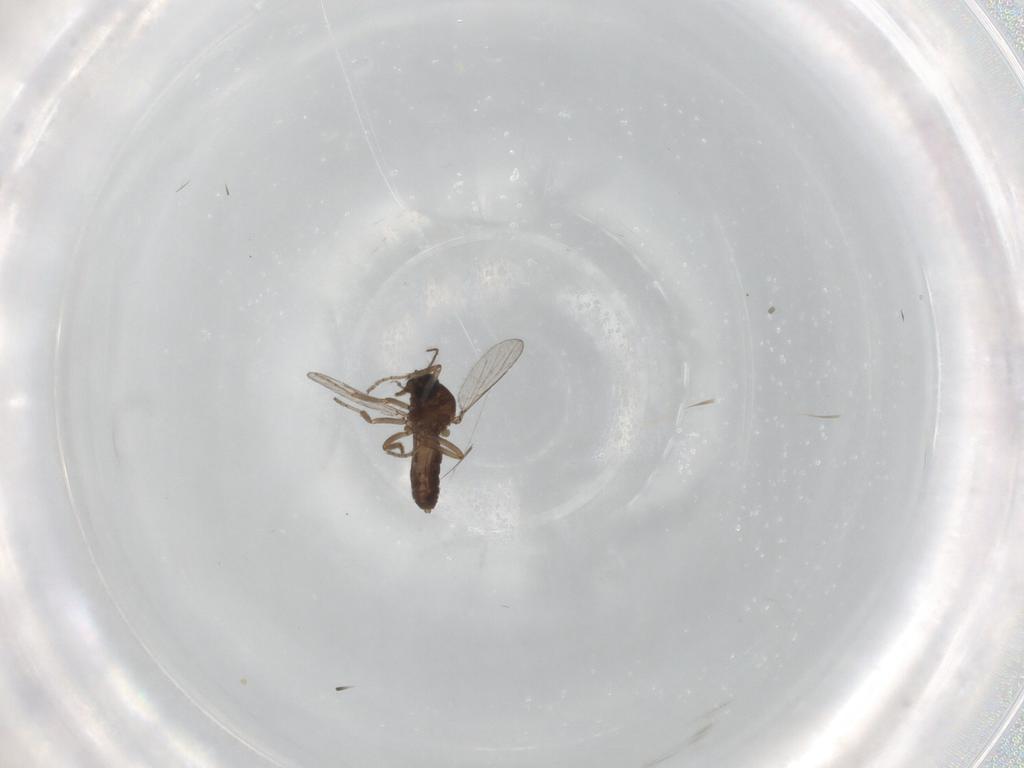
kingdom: Animalia
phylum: Arthropoda
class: Insecta
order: Diptera
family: Ceratopogonidae
